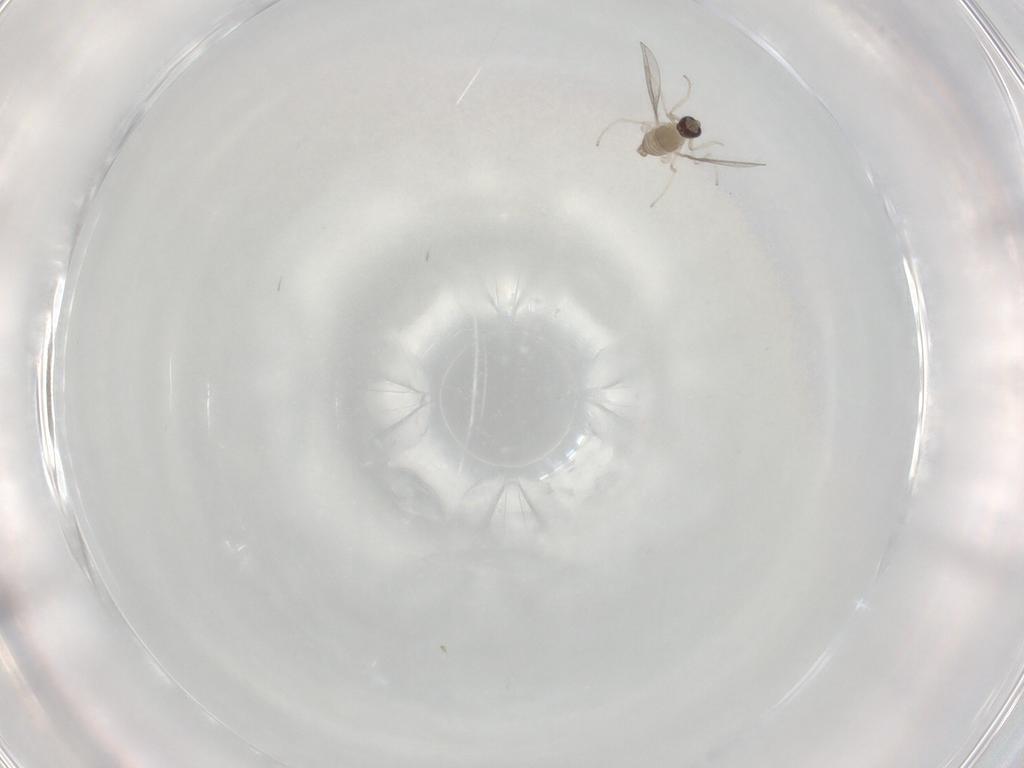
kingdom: Animalia
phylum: Arthropoda
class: Insecta
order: Diptera
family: Cecidomyiidae
